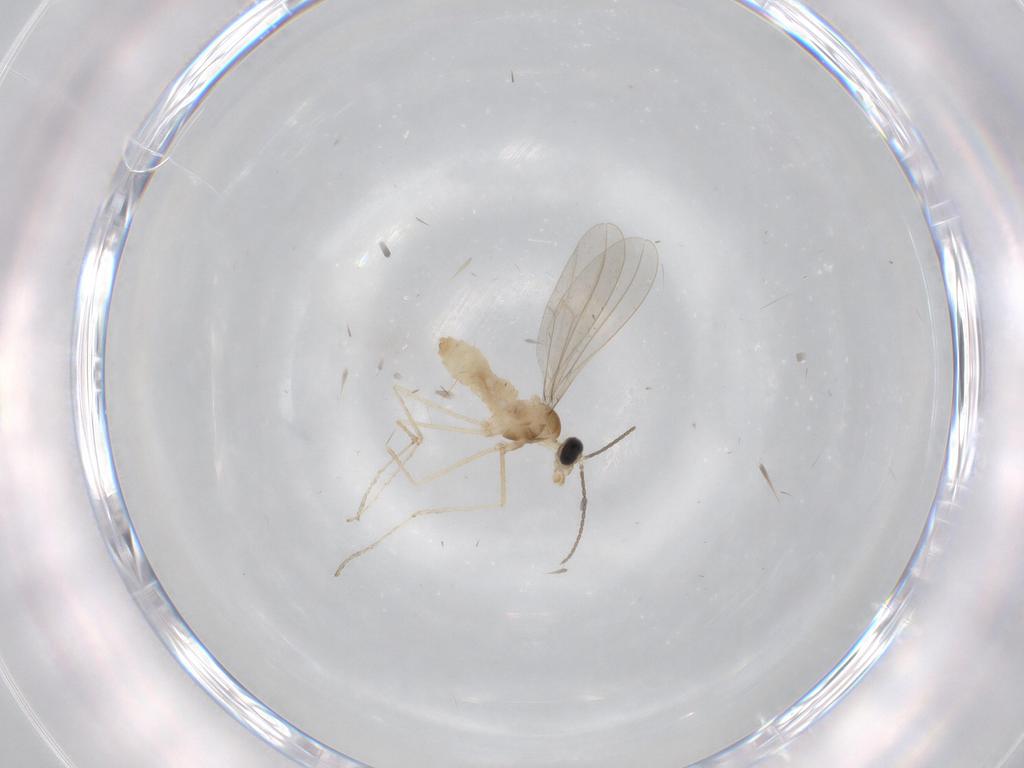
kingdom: Animalia
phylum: Arthropoda
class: Insecta
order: Diptera
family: Cecidomyiidae
